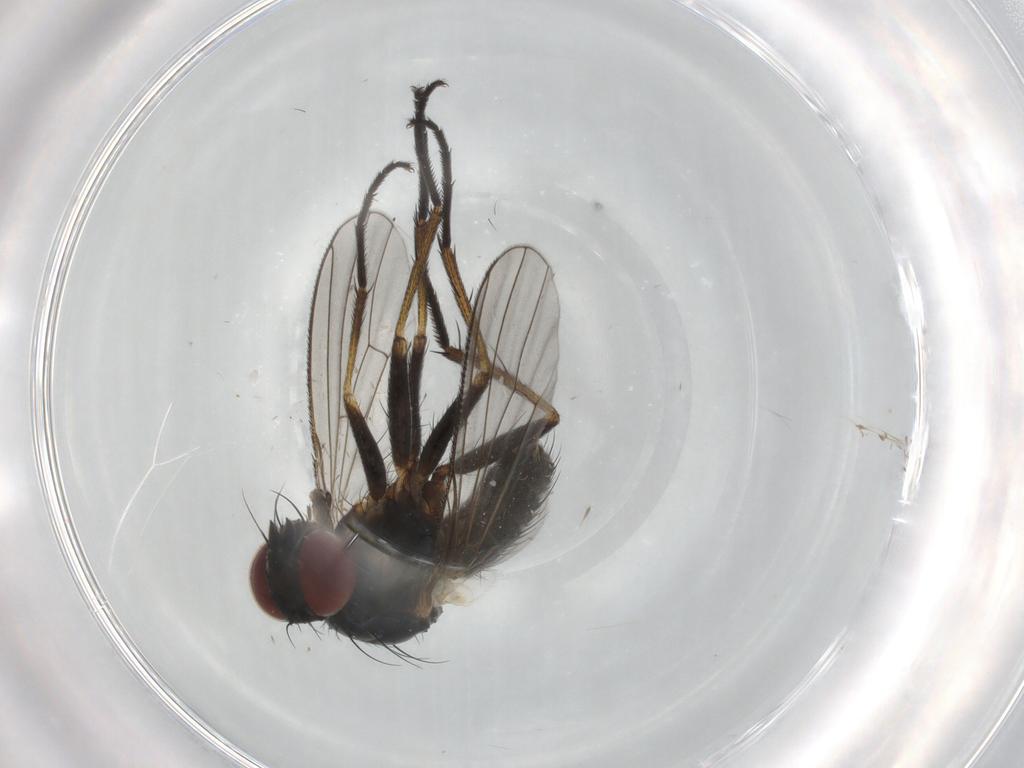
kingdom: Animalia
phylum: Arthropoda
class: Insecta
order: Diptera
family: Muscidae
